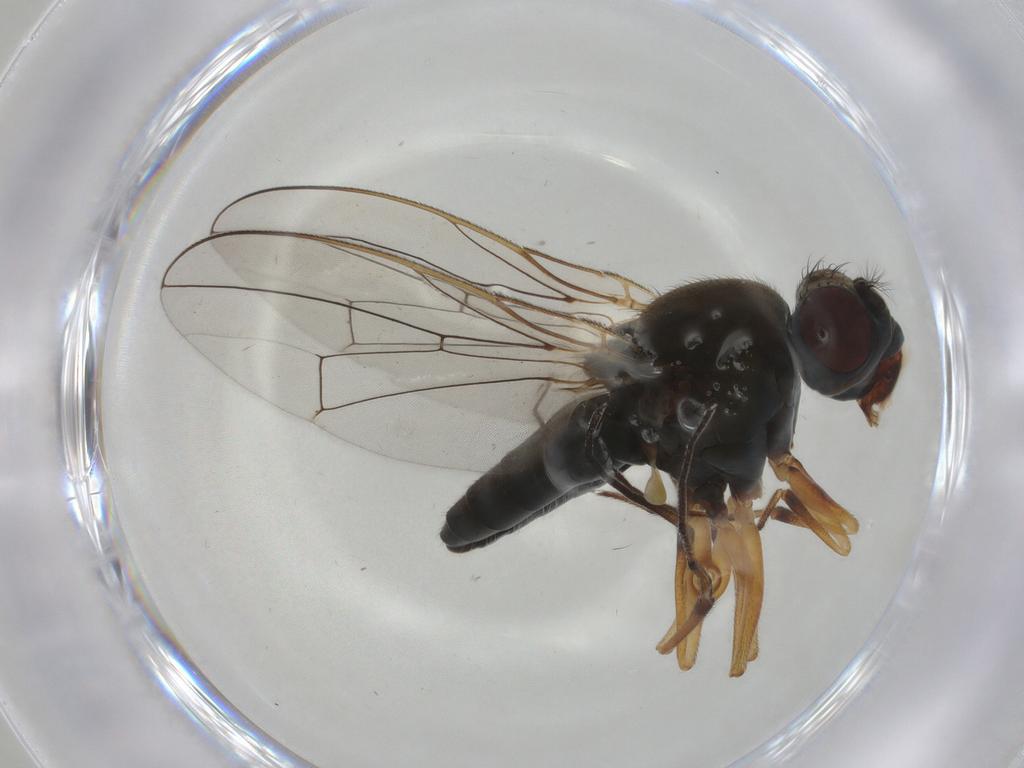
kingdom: Animalia
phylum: Arthropoda
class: Insecta
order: Diptera
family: Ephydridae
